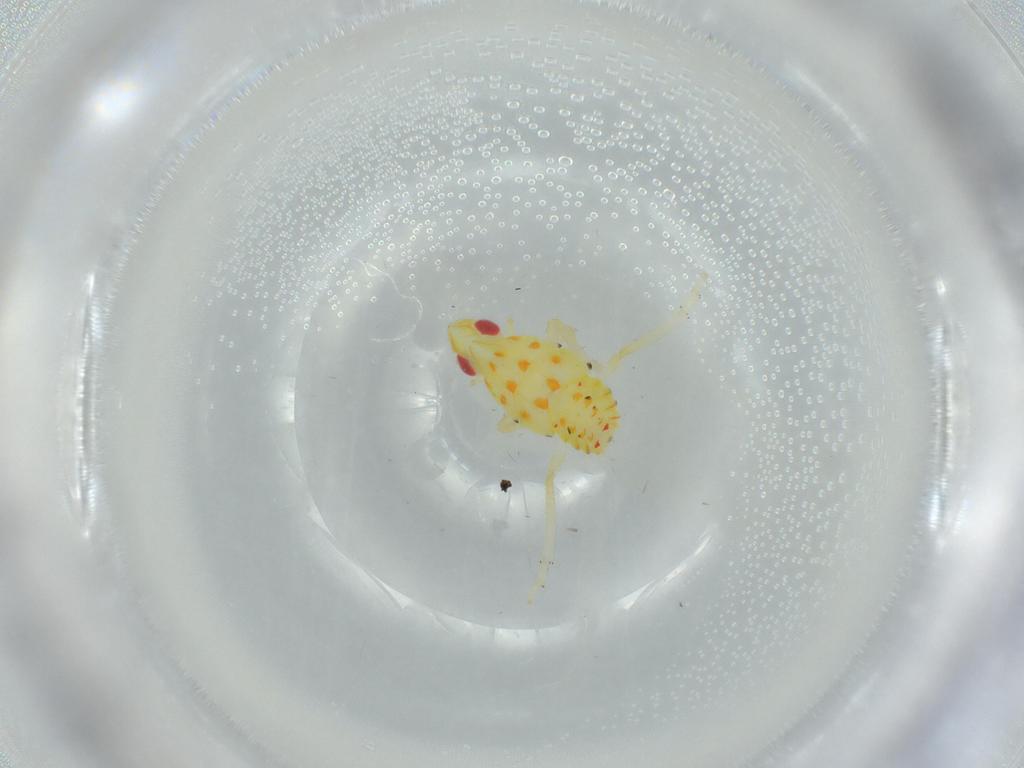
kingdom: Animalia
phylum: Arthropoda
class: Insecta
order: Hemiptera
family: Tropiduchidae
